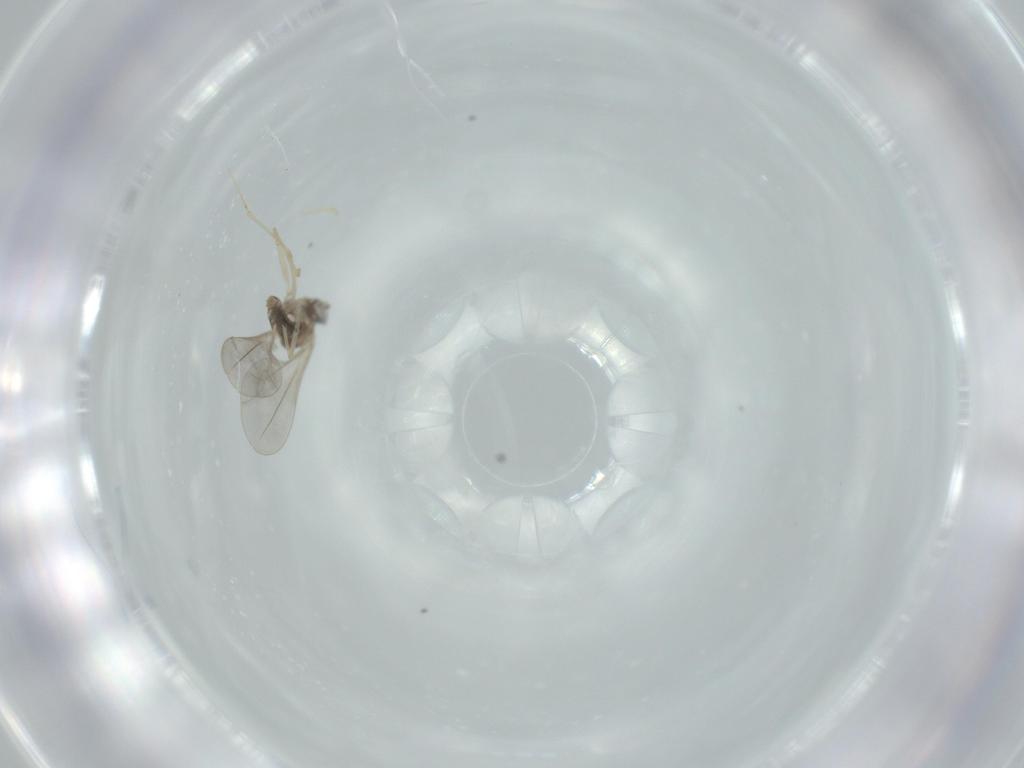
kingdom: Animalia
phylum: Arthropoda
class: Insecta
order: Diptera
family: Cecidomyiidae
